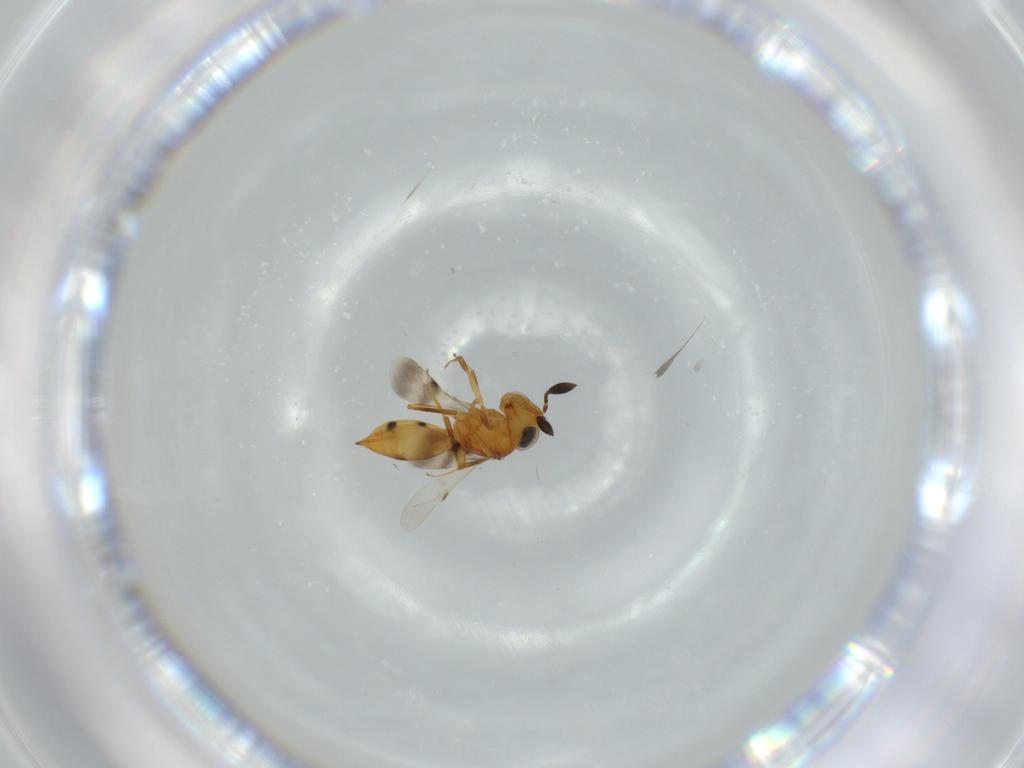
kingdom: Animalia
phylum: Arthropoda
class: Insecta
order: Hymenoptera
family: Scelionidae
